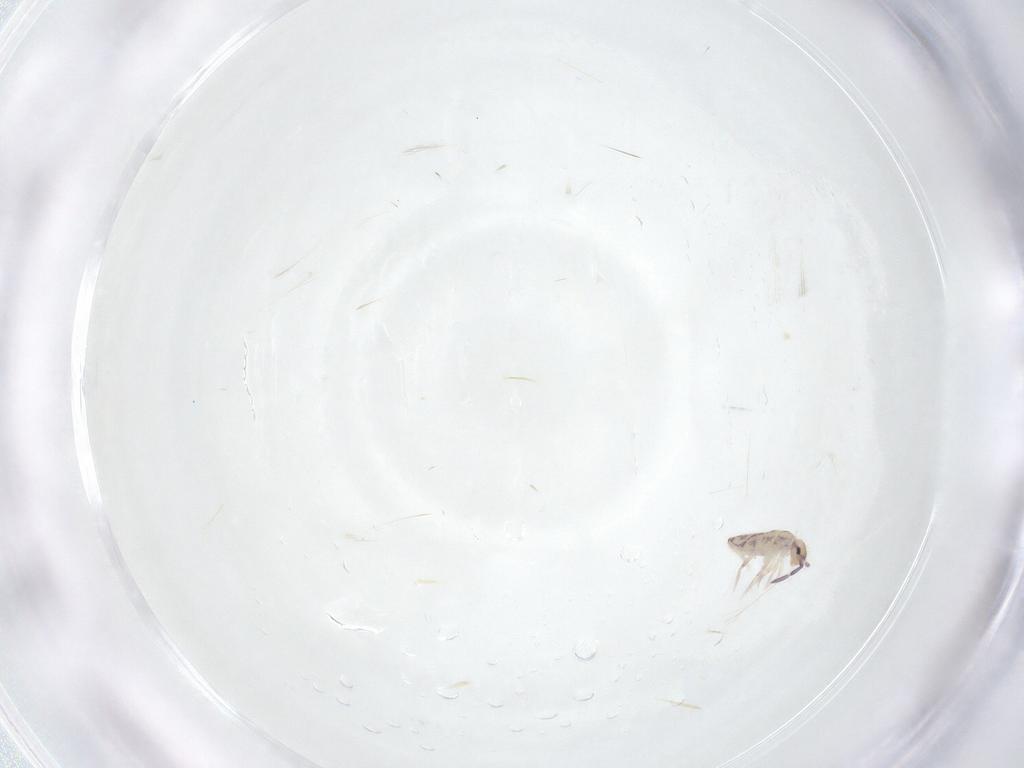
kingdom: Animalia
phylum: Arthropoda
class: Collembola
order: Entomobryomorpha
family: Entomobryidae
